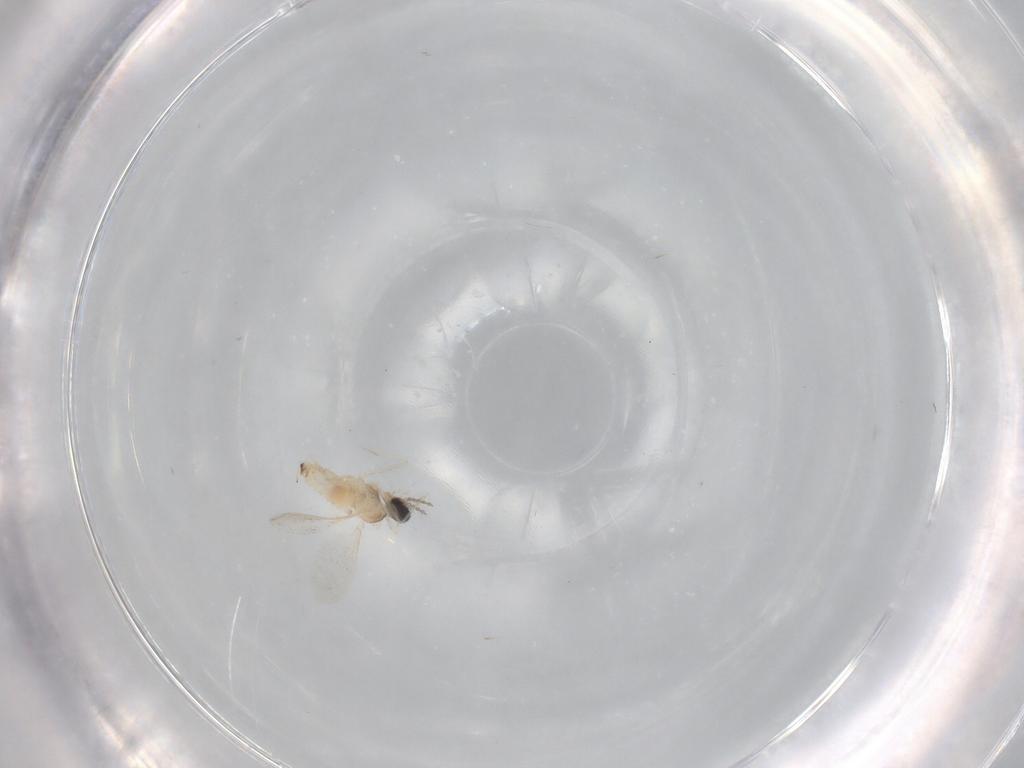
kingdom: Animalia
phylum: Arthropoda
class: Insecta
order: Diptera
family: Cecidomyiidae
